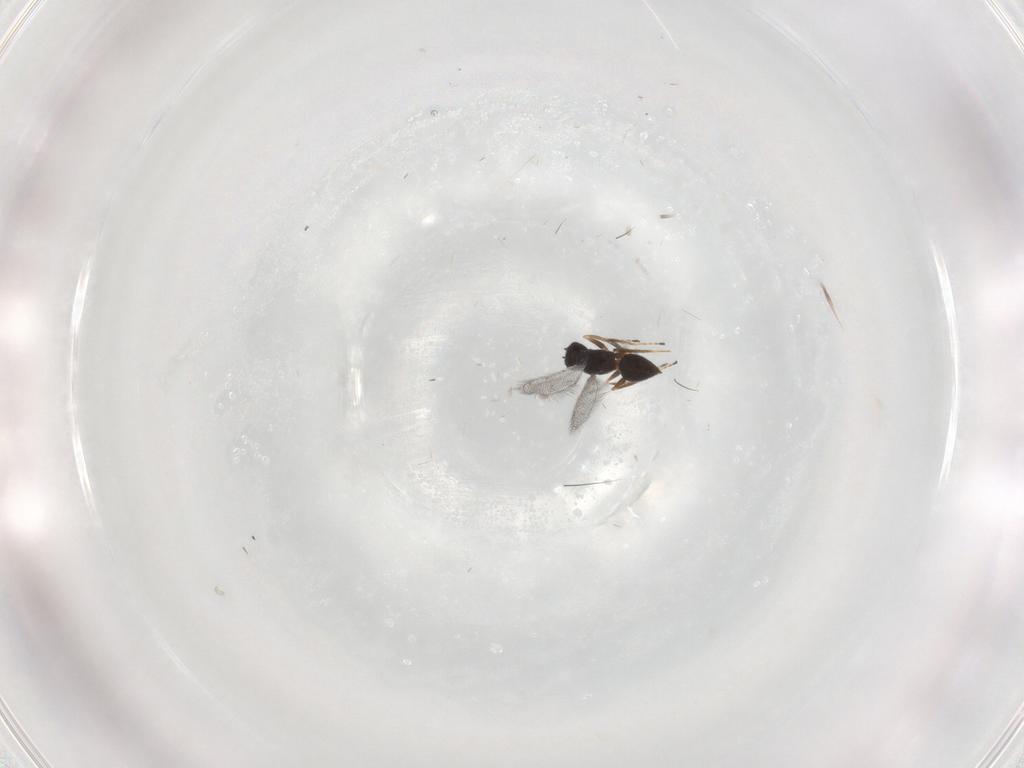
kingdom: Animalia
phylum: Arthropoda
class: Insecta
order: Hymenoptera
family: Mymaridae
